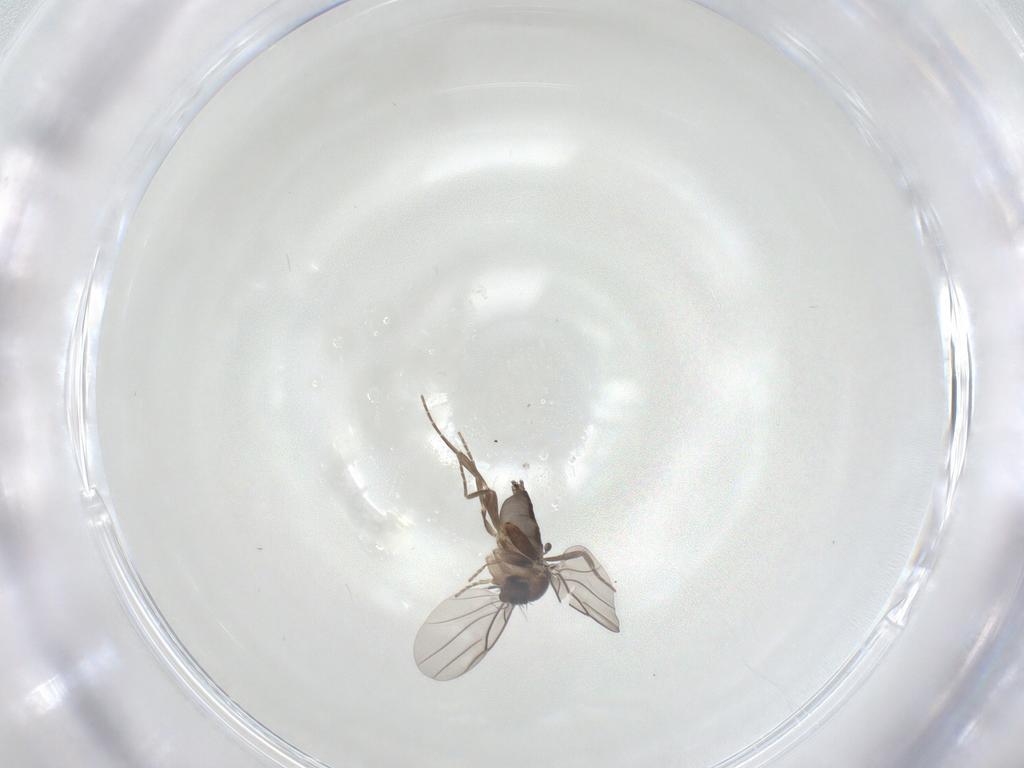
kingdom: Animalia
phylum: Arthropoda
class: Insecta
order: Diptera
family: Phoridae
